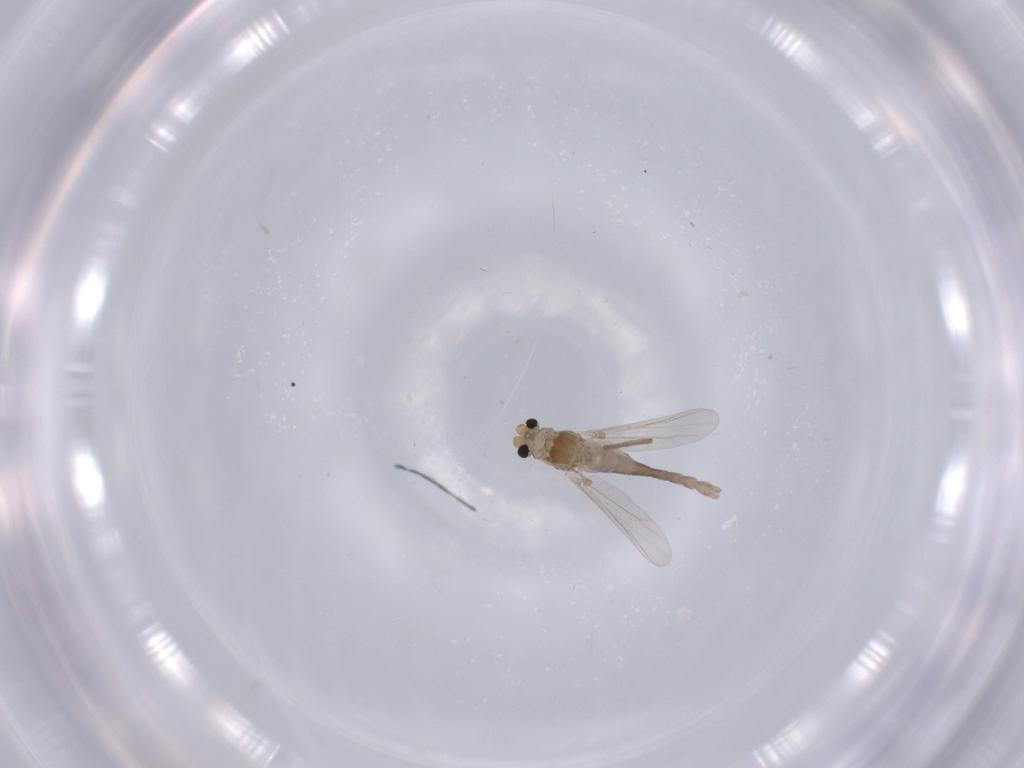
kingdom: Animalia
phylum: Arthropoda
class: Insecta
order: Diptera
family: Chironomidae
